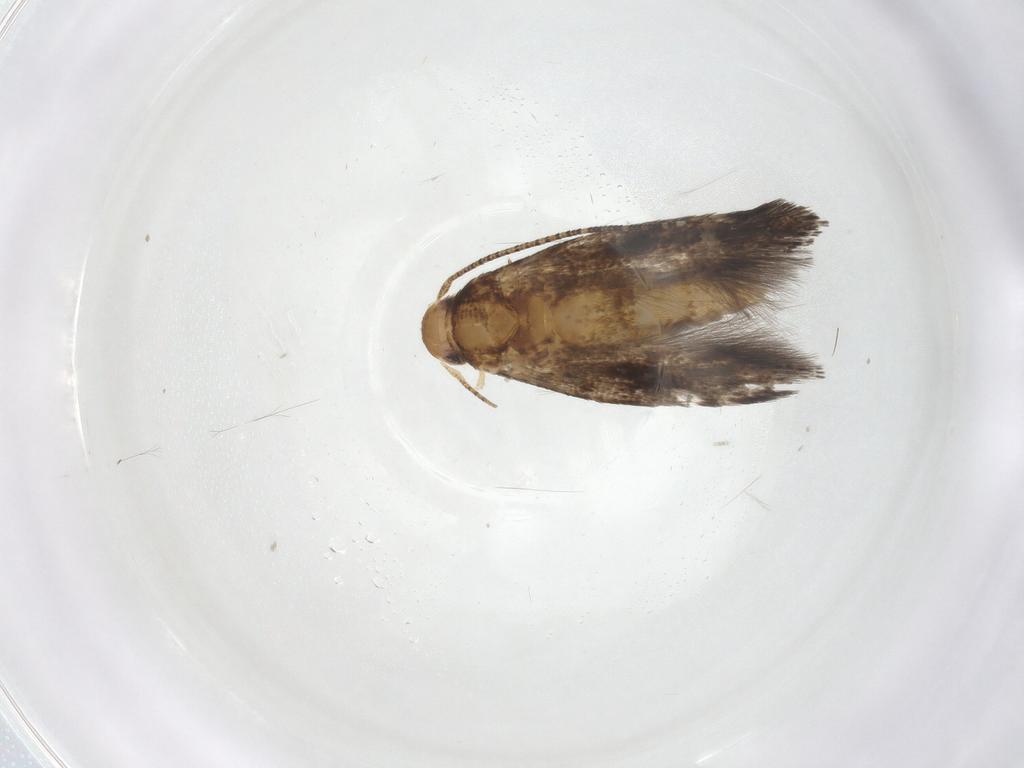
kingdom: Animalia
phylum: Arthropoda
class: Insecta
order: Lepidoptera
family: Momphidae
